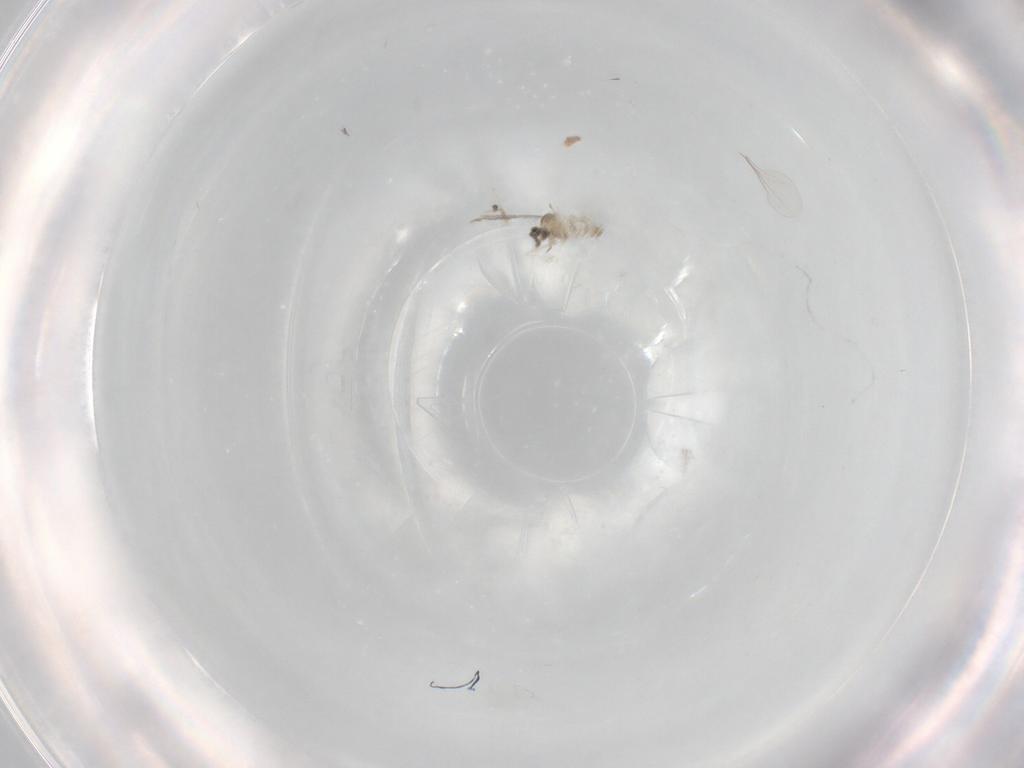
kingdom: Animalia
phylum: Arthropoda
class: Insecta
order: Diptera
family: Cecidomyiidae
